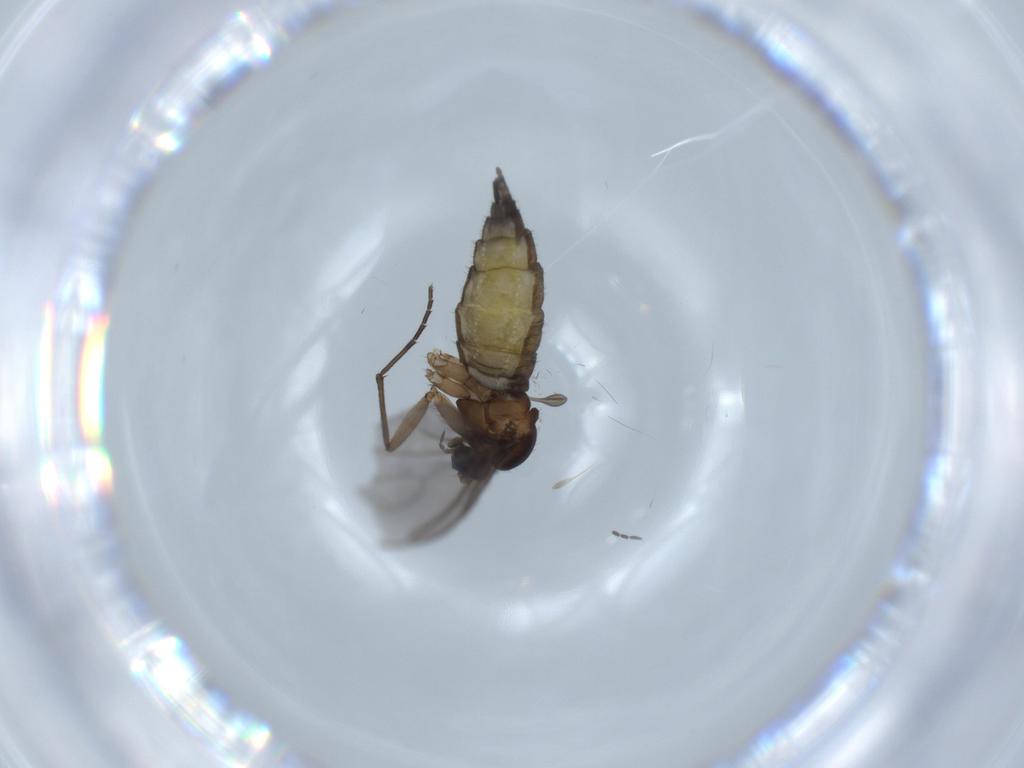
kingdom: Animalia
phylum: Arthropoda
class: Insecta
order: Diptera
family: Sciaridae
